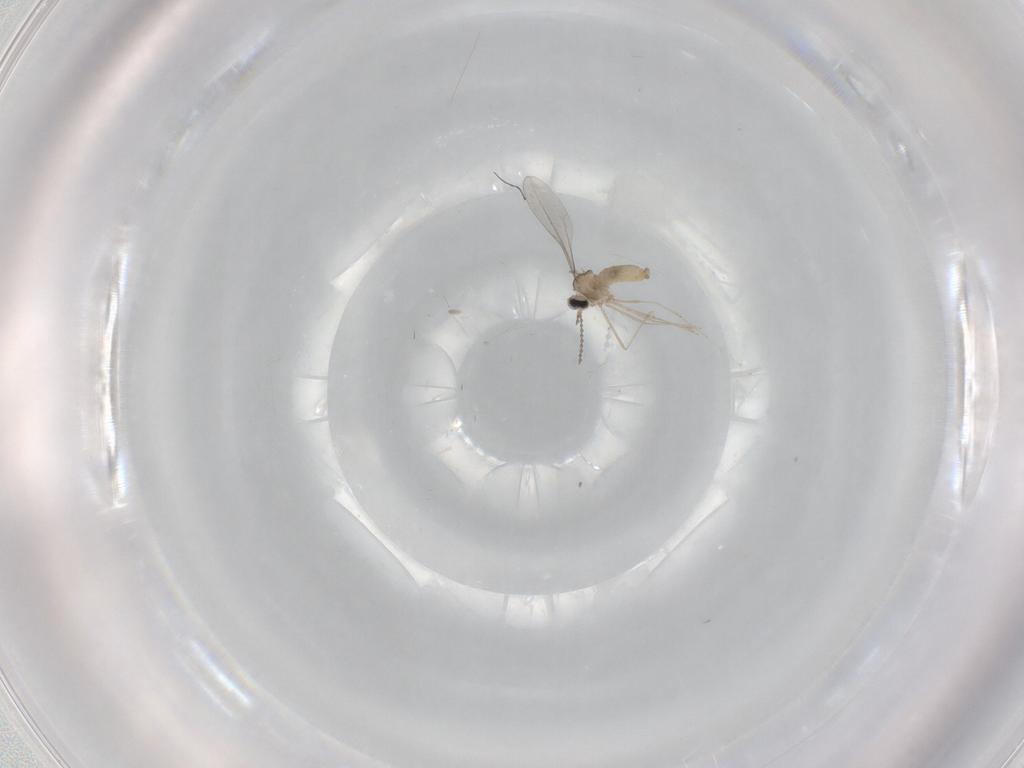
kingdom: Animalia
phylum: Arthropoda
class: Insecta
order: Diptera
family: Cecidomyiidae
